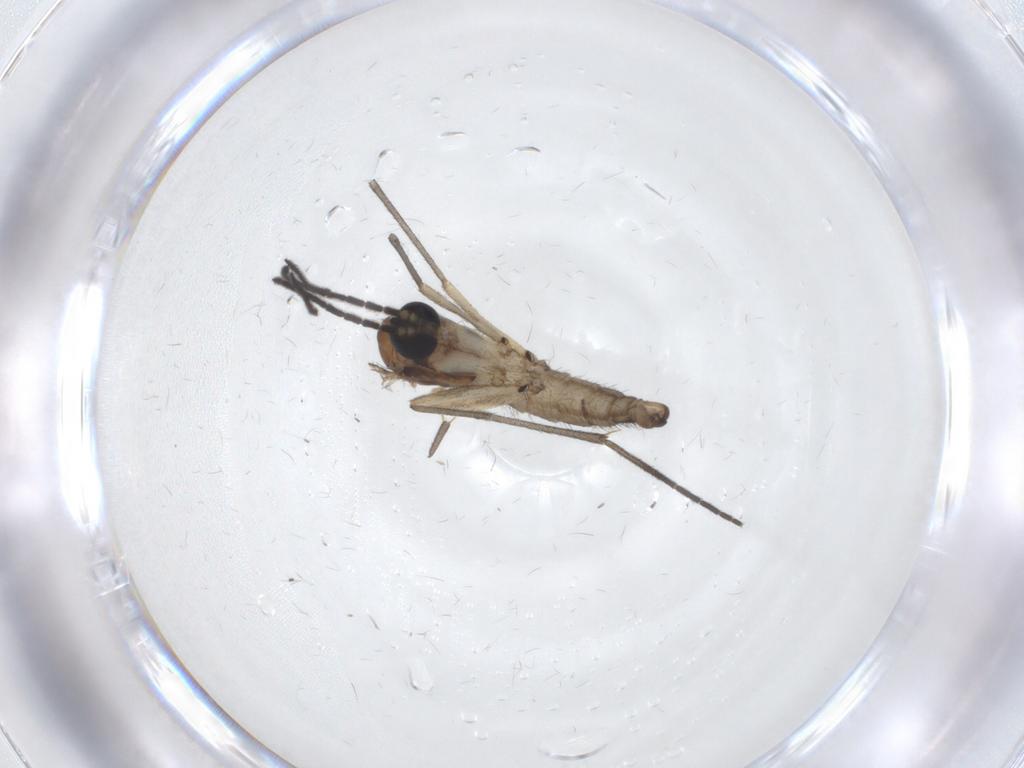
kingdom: Animalia
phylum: Arthropoda
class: Insecta
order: Diptera
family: Sciaridae
